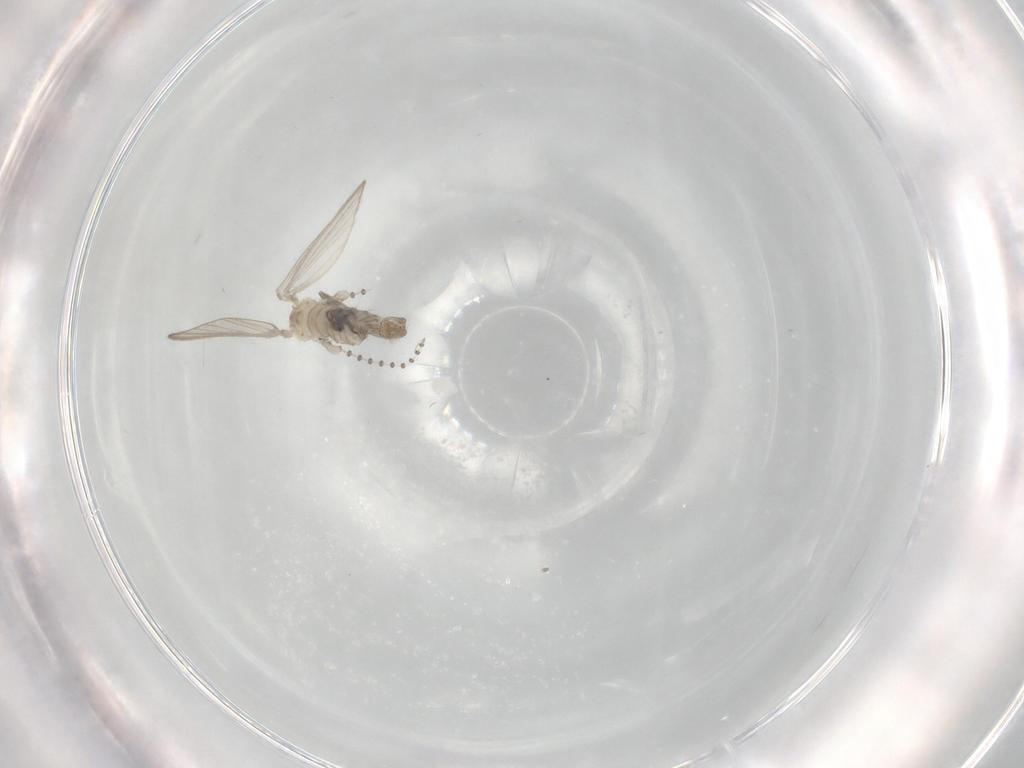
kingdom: Animalia
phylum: Arthropoda
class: Insecta
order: Diptera
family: Psychodidae
